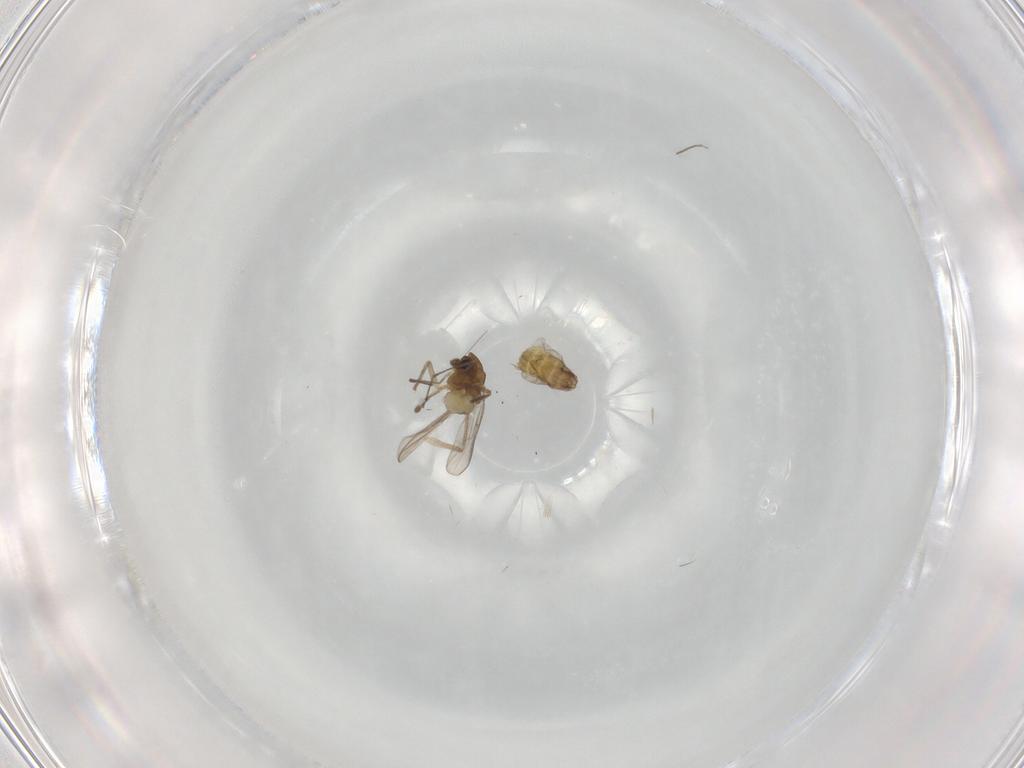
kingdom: Animalia
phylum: Arthropoda
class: Insecta
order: Diptera
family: Chironomidae
